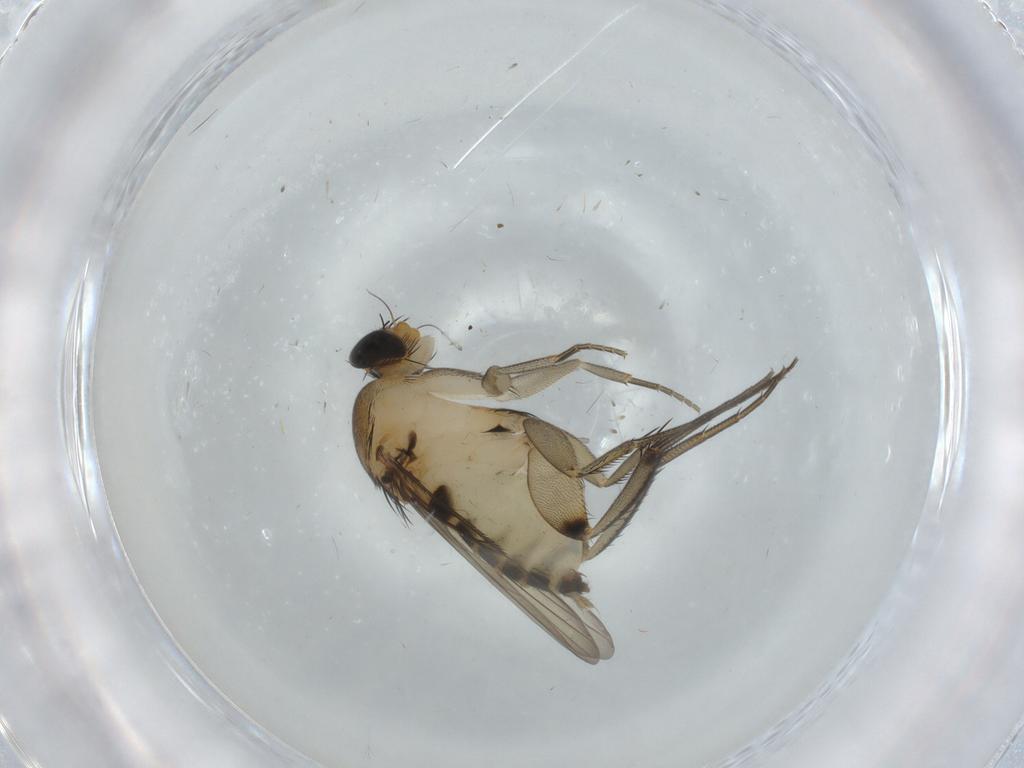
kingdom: Animalia
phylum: Arthropoda
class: Insecta
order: Diptera
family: Phoridae
